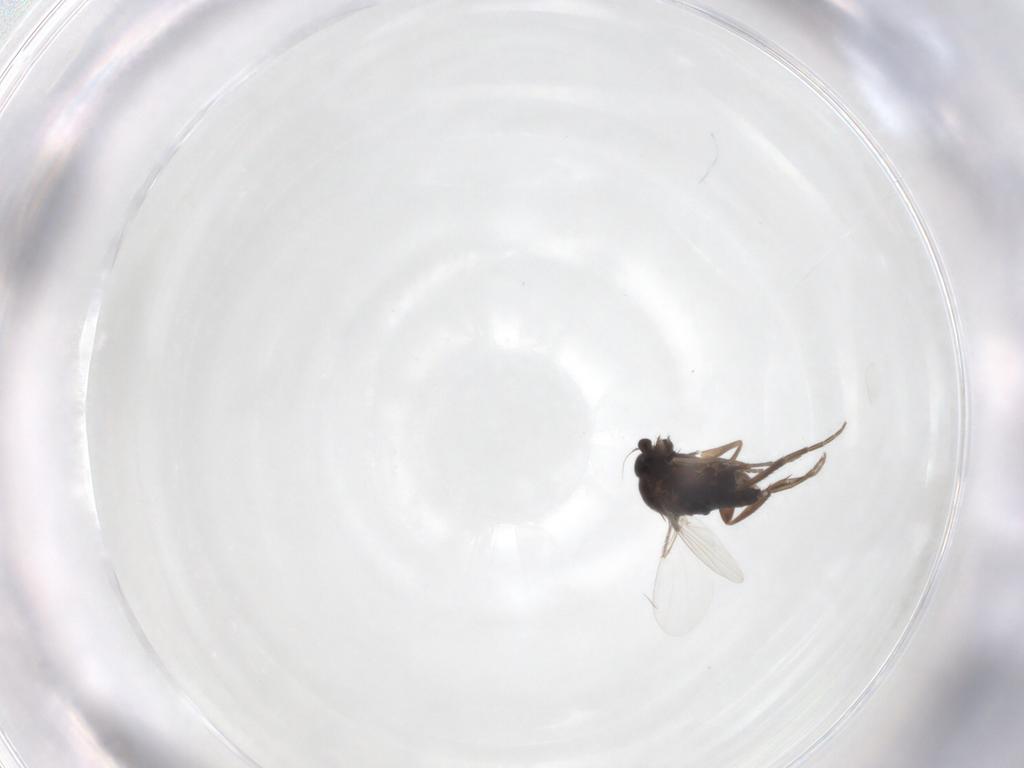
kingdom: Animalia
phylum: Arthropoda
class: Insecta
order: Diptera
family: Phoridae
